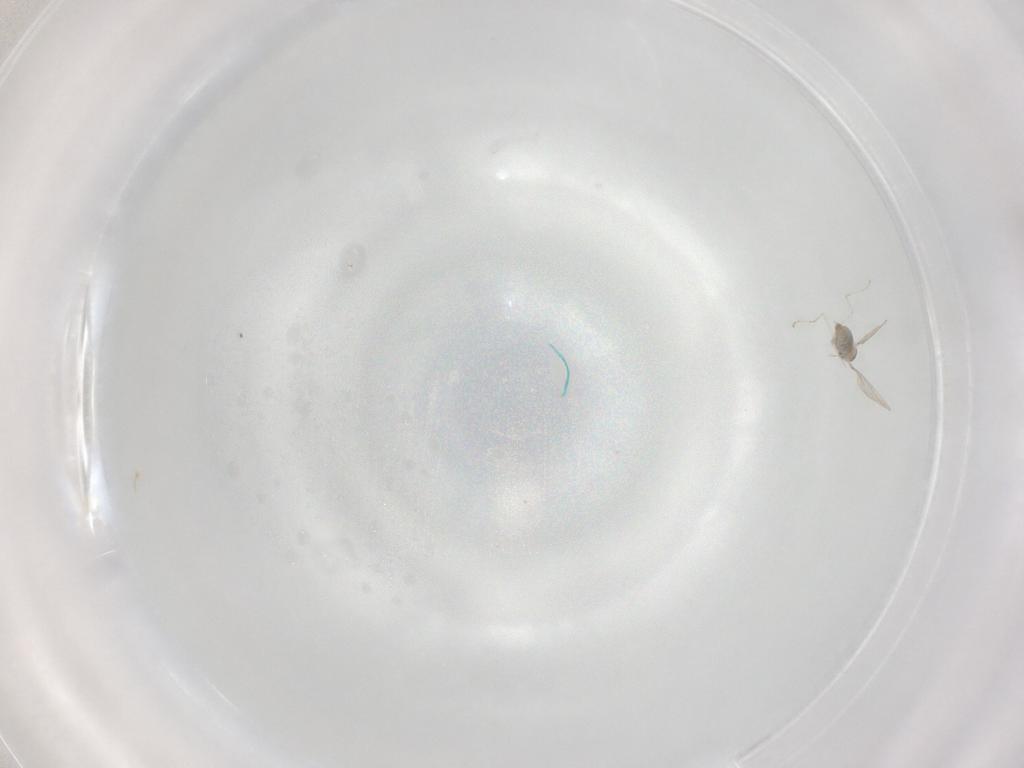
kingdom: Animalia
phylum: Arthropoda
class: Insecta
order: Diptera
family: Cecidomyiidae
